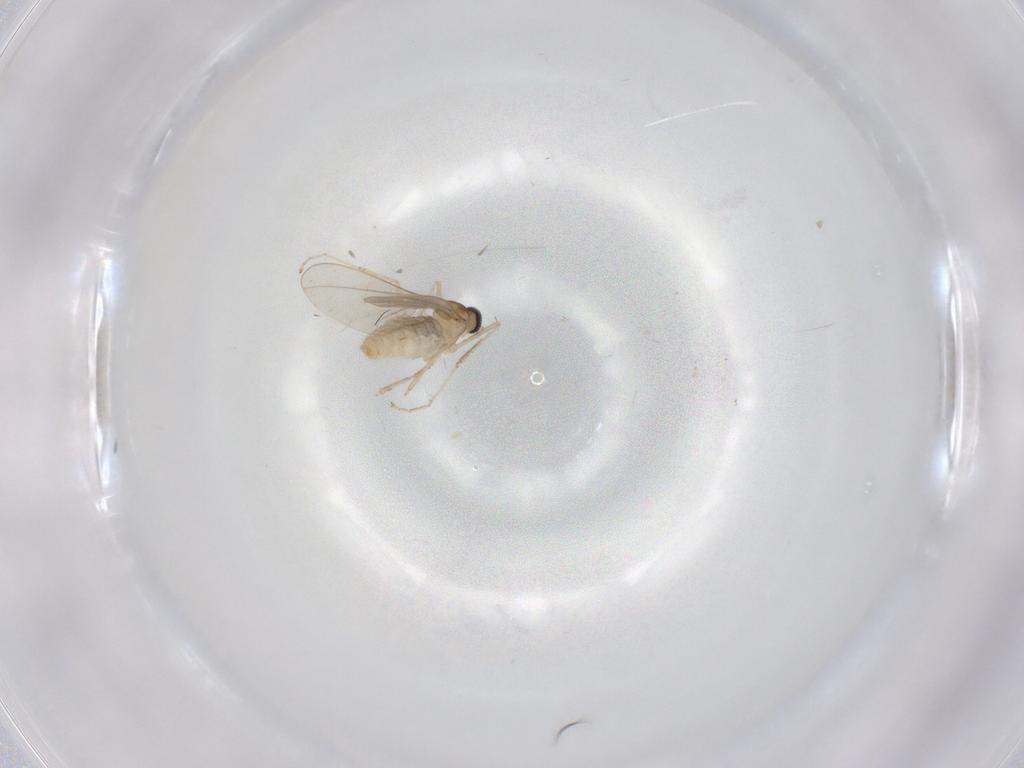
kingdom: Animalia
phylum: Arthropoda
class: Insecta
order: Diptera
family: Cecidomyiidae
